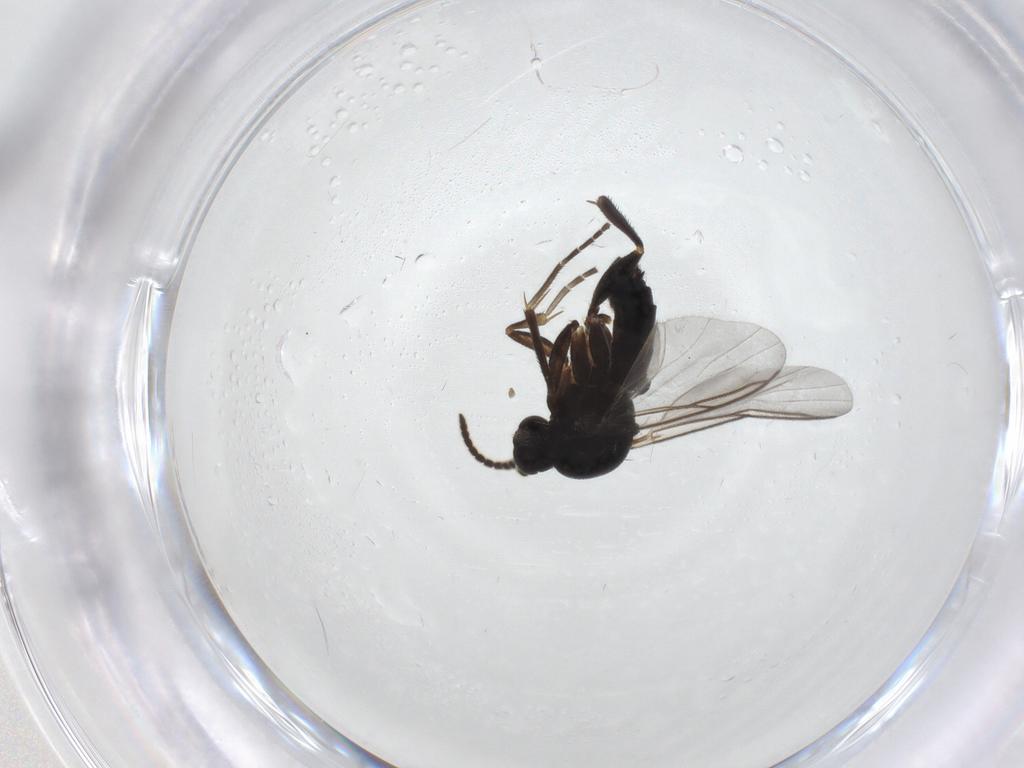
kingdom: Animalia
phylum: Arthropoda
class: Insecta
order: Diptera
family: Mycetophilidae
